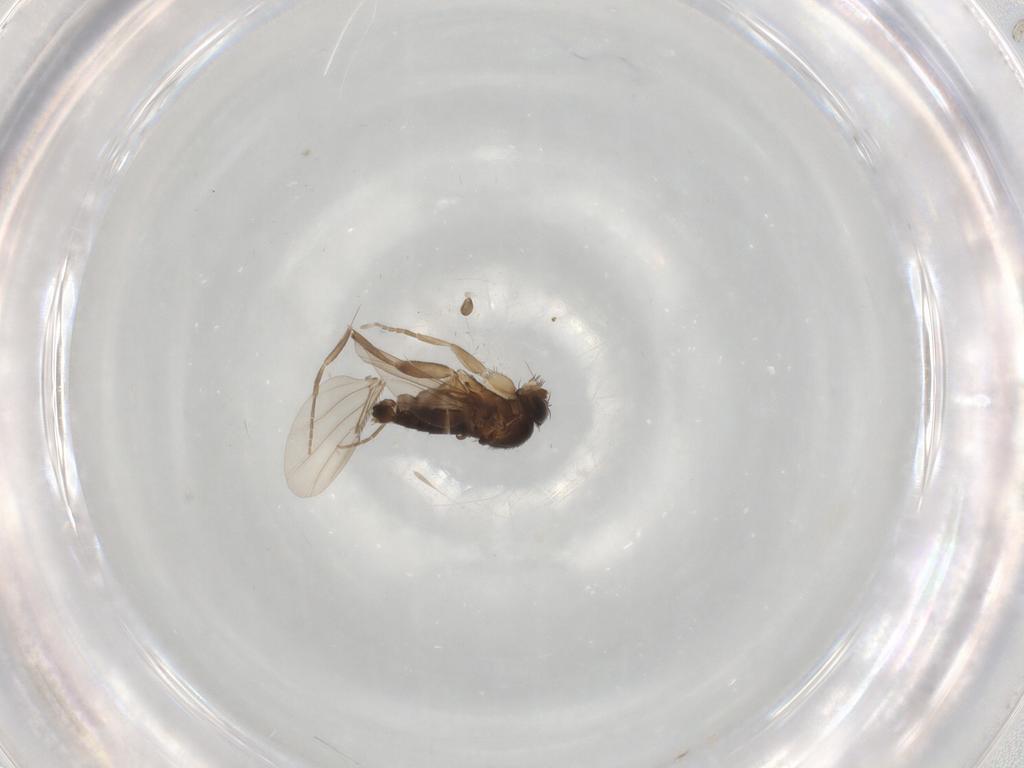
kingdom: Animalia
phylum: Arthropoda
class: Insecta
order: Diptera
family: Phoridae
